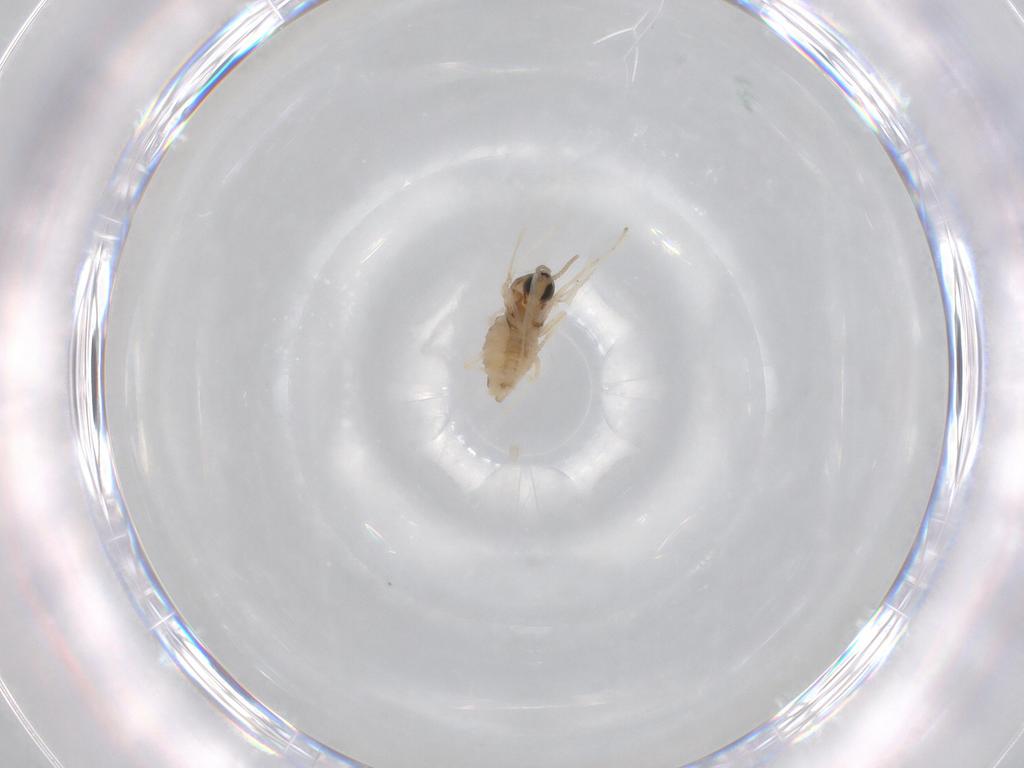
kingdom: Animalia
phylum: Arthropoda
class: Insecta
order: Diptera
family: Cecidomyiidae
